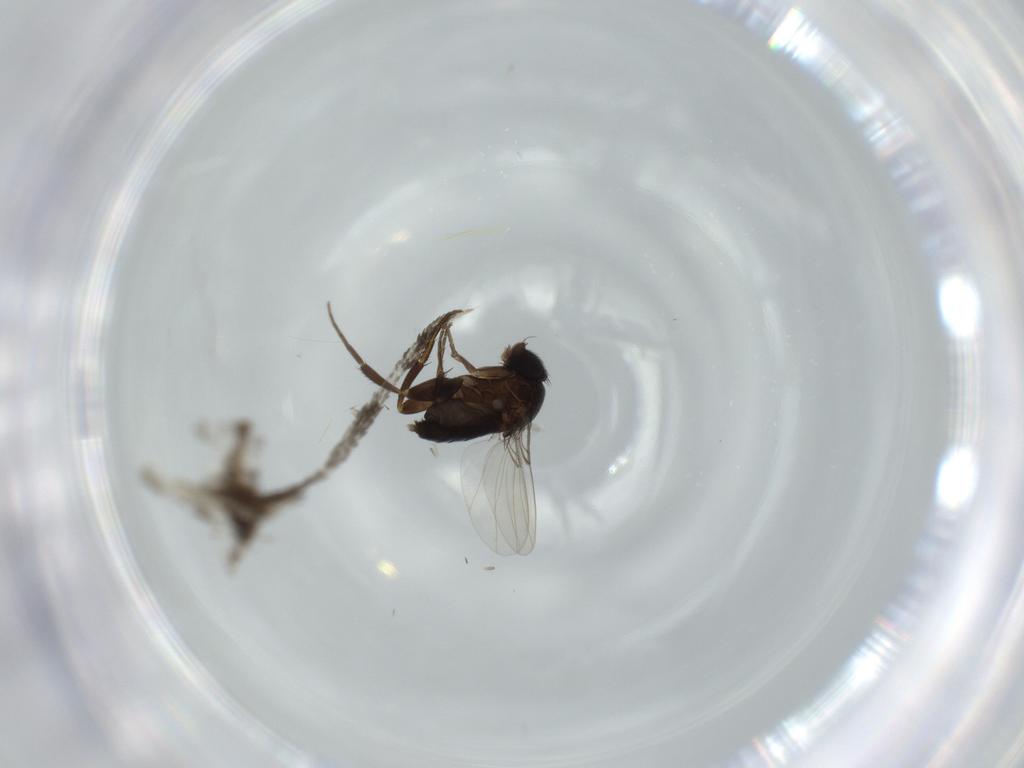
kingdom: Animalia
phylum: Arthropoda
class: Insecta
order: Diptera
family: Phoridae
